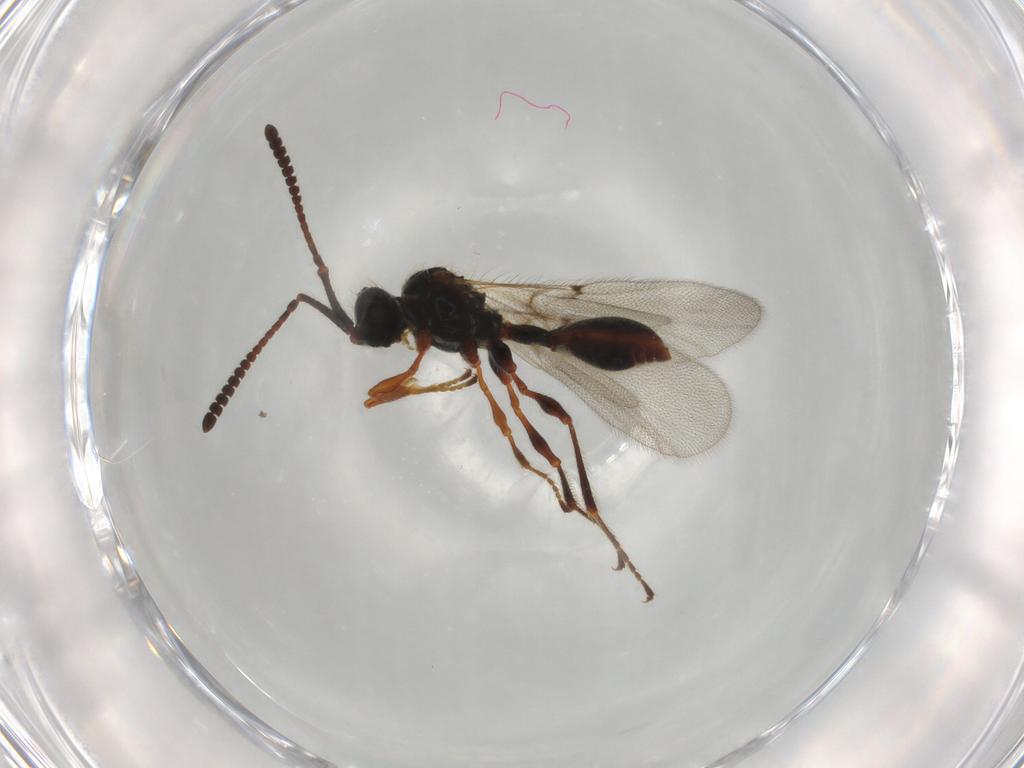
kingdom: Animalia
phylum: Arthropoda
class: Insecta
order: Hymenoptera
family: Diapriidae
